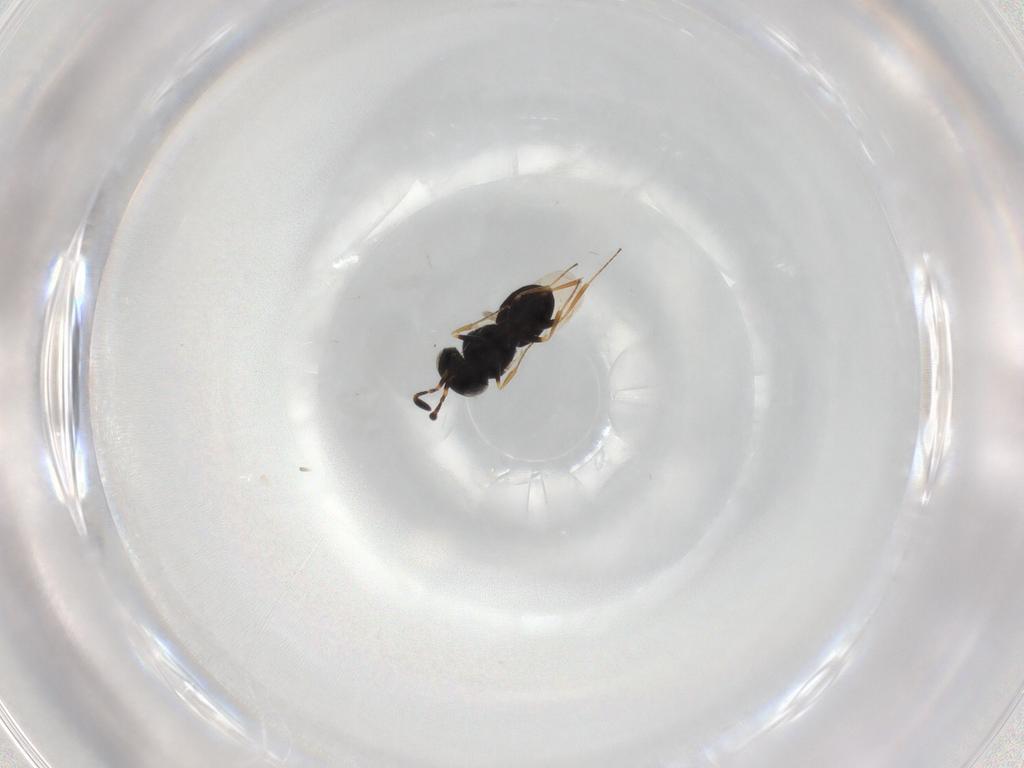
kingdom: Animalia
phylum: Arthropoda
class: Insecta
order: Hymenoptera
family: Scelionidae
